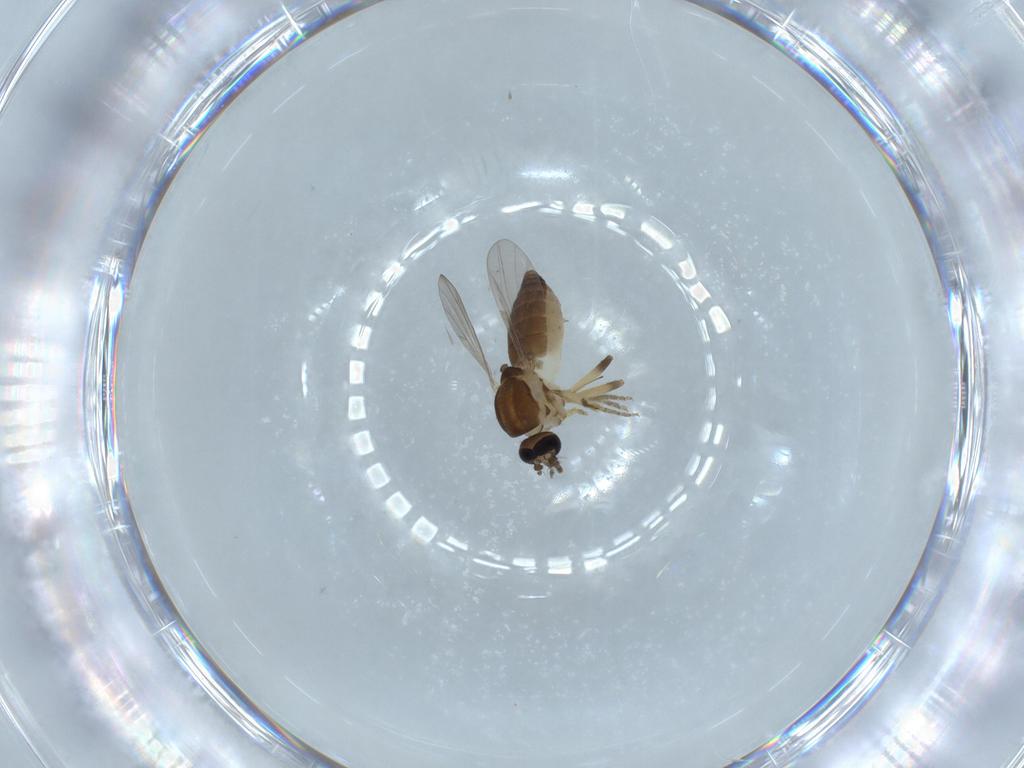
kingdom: Animalia
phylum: Arthropoda
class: Insecta
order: Diptera
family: Ceratopogonidae
